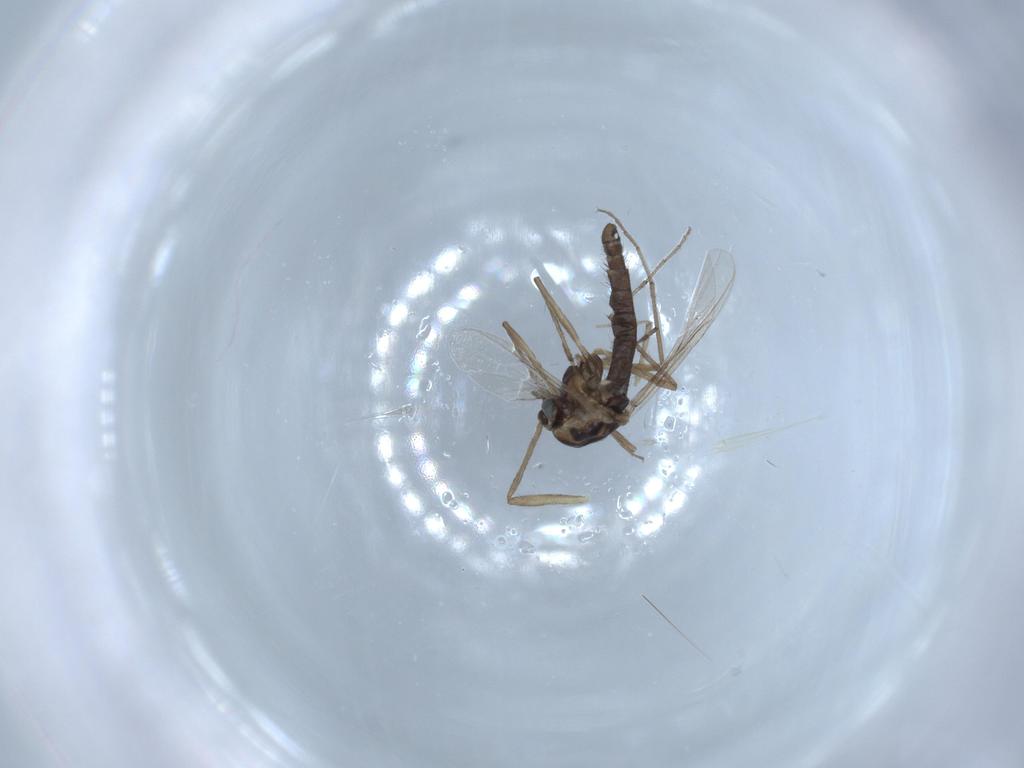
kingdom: Animalia
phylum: Arthropoda
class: Insecta
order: Diptera
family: Chironomidae
